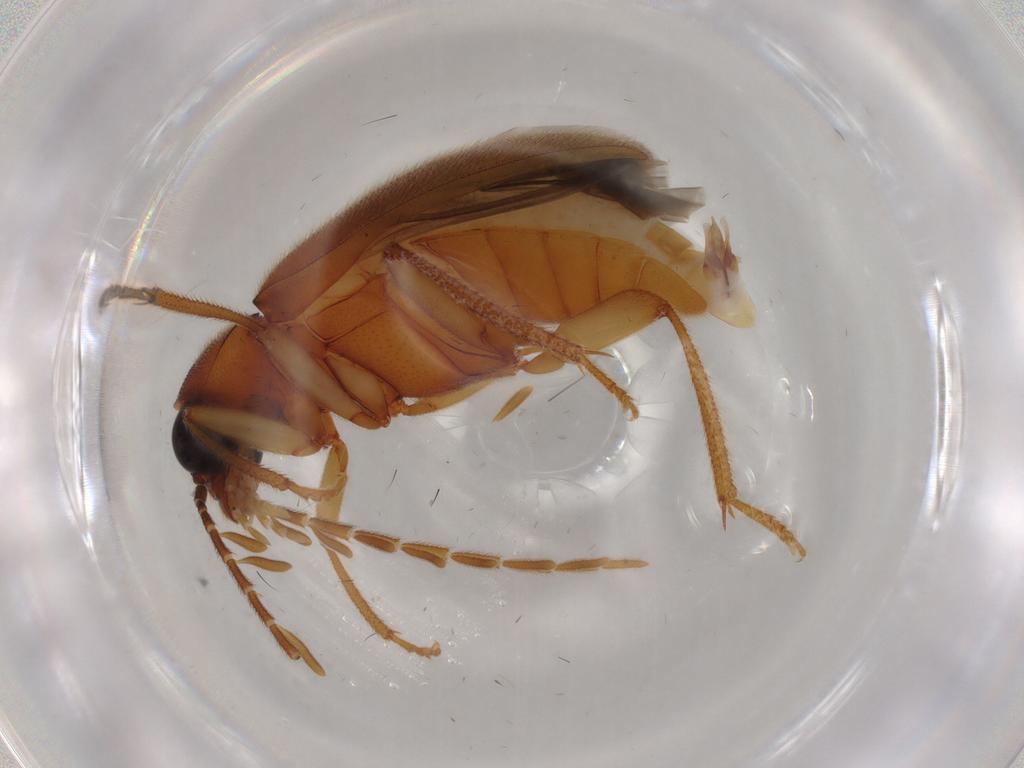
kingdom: Animalia
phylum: Arthropoda
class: Insecta
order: Coleoptera
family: Ptilodactylidae
